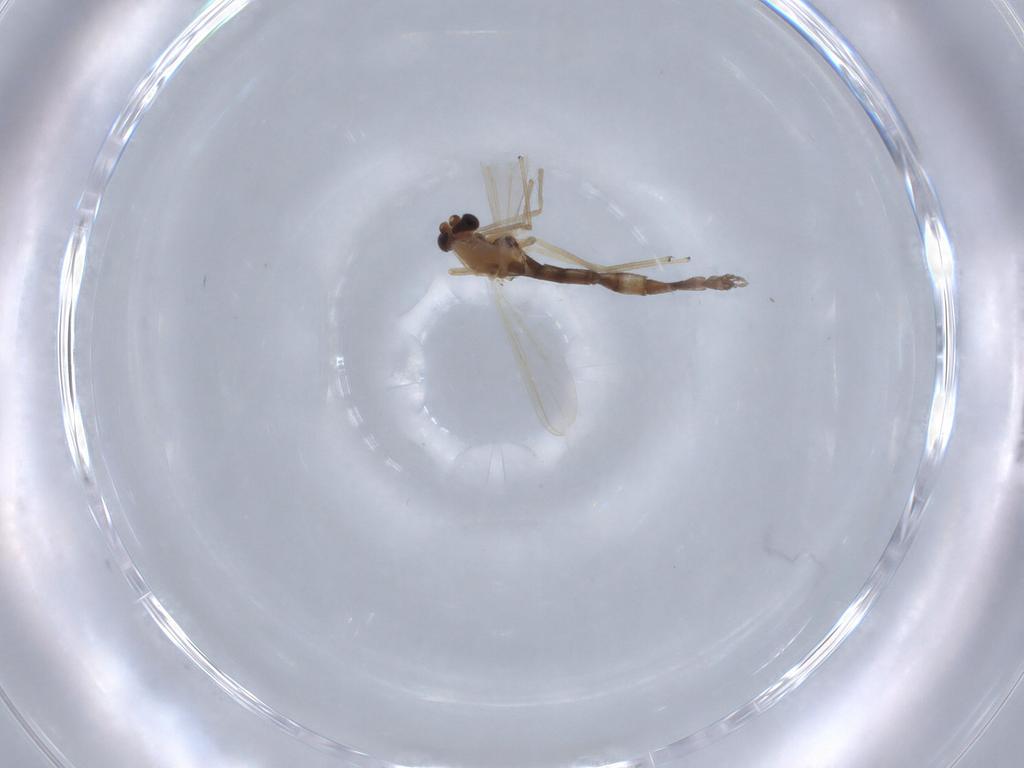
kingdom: Animalia
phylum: Arthropoda
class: Insecta
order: Diptera
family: Chironomidae
